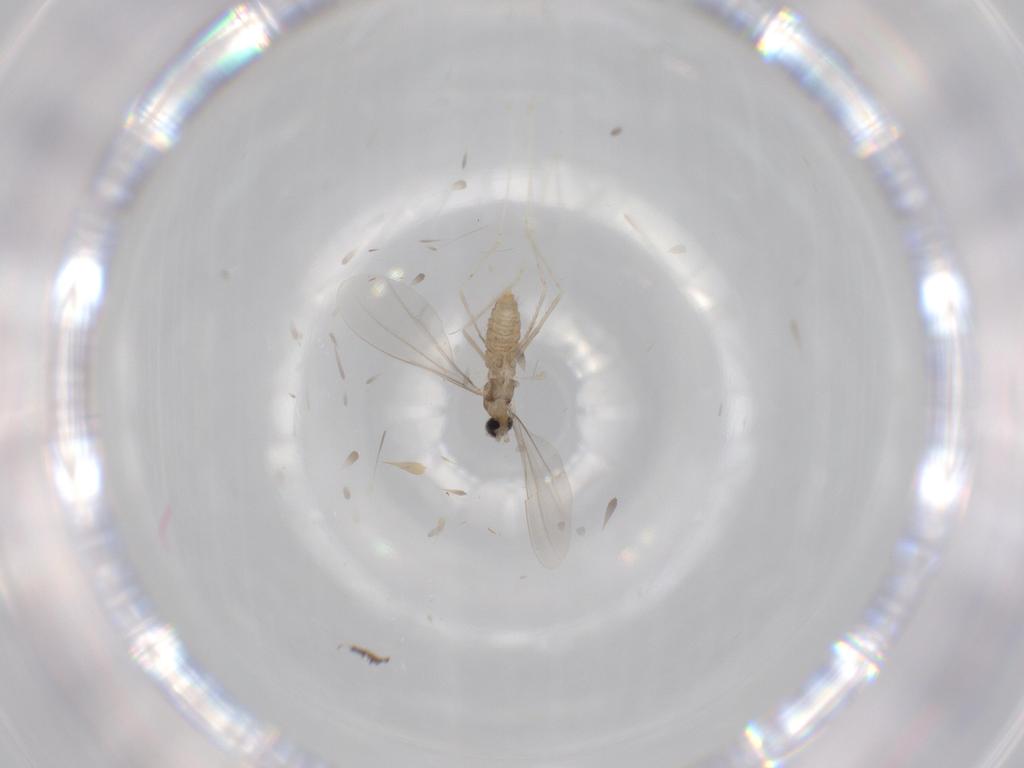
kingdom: Animalia
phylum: Arthropoda
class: Insecta
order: Diptera
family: Cecidomyiidae
